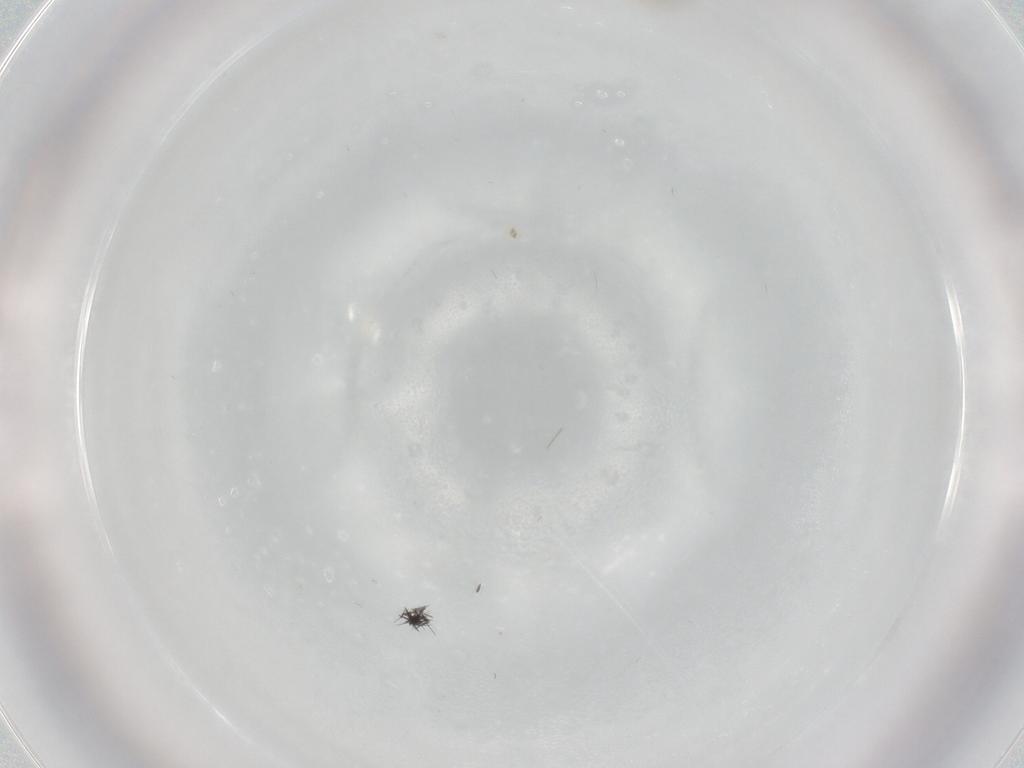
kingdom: Animalia
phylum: Arthropoda
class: Insecta
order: Diptera
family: Cecidomyiidae
